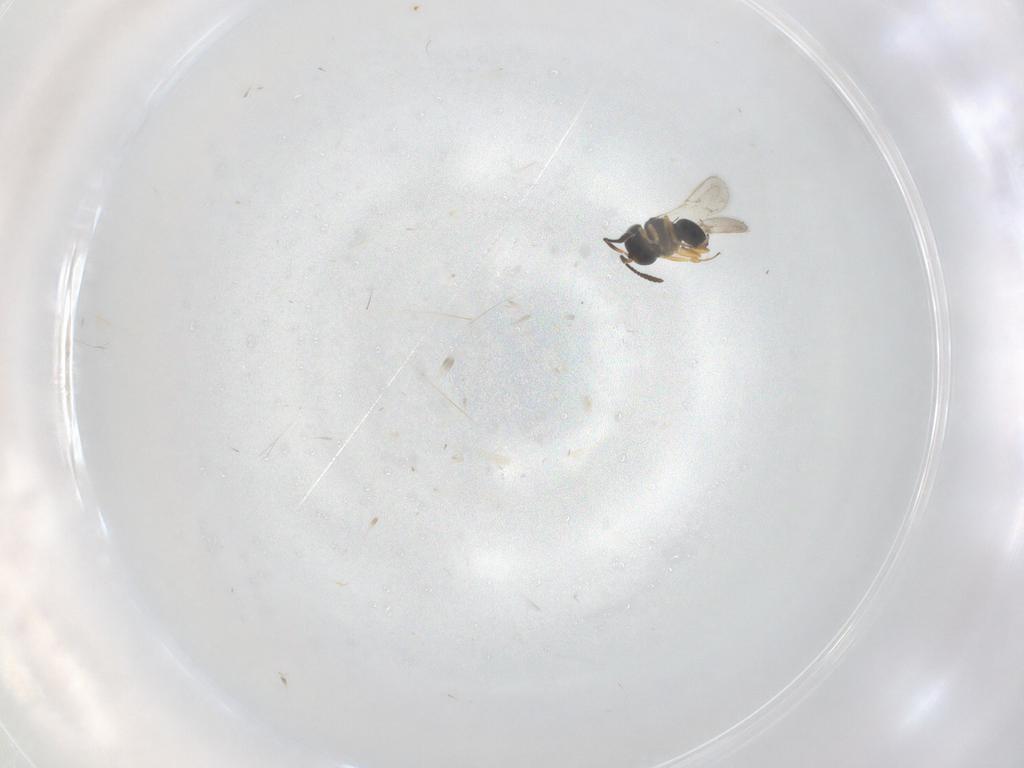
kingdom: Animalia
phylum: Arthropoda
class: Insecta
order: Hymenoptera
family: Scelionidae
